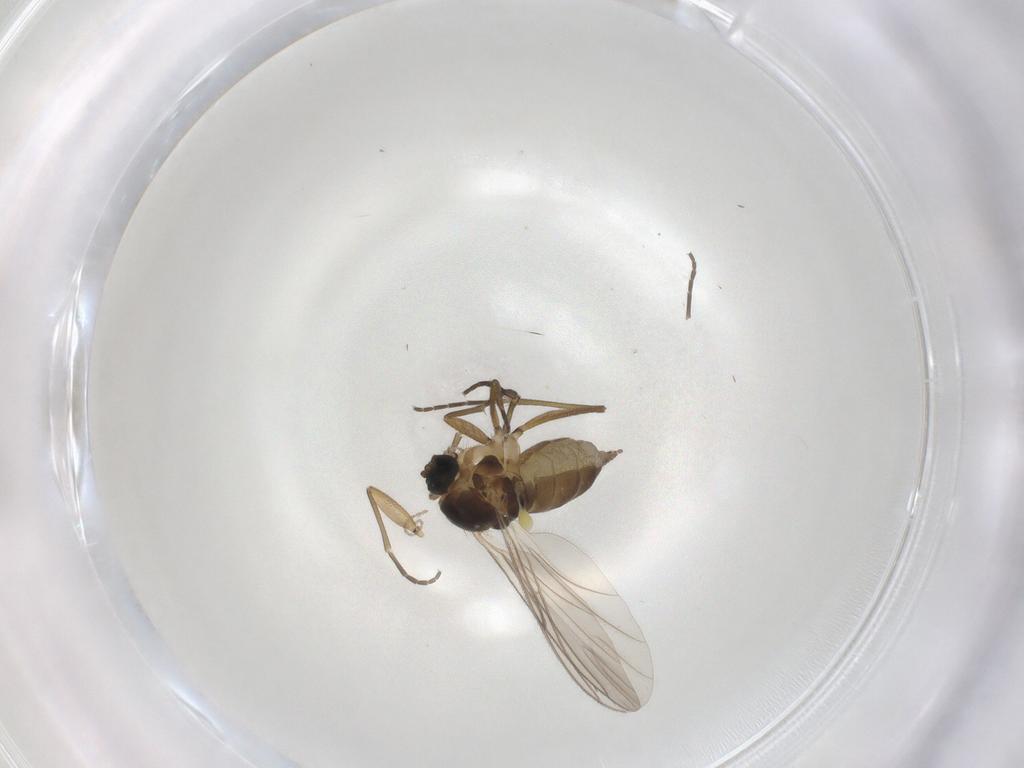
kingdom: Animalia
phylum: Arthropoda
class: Insecta
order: Diptera
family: Cecidomyiidae
